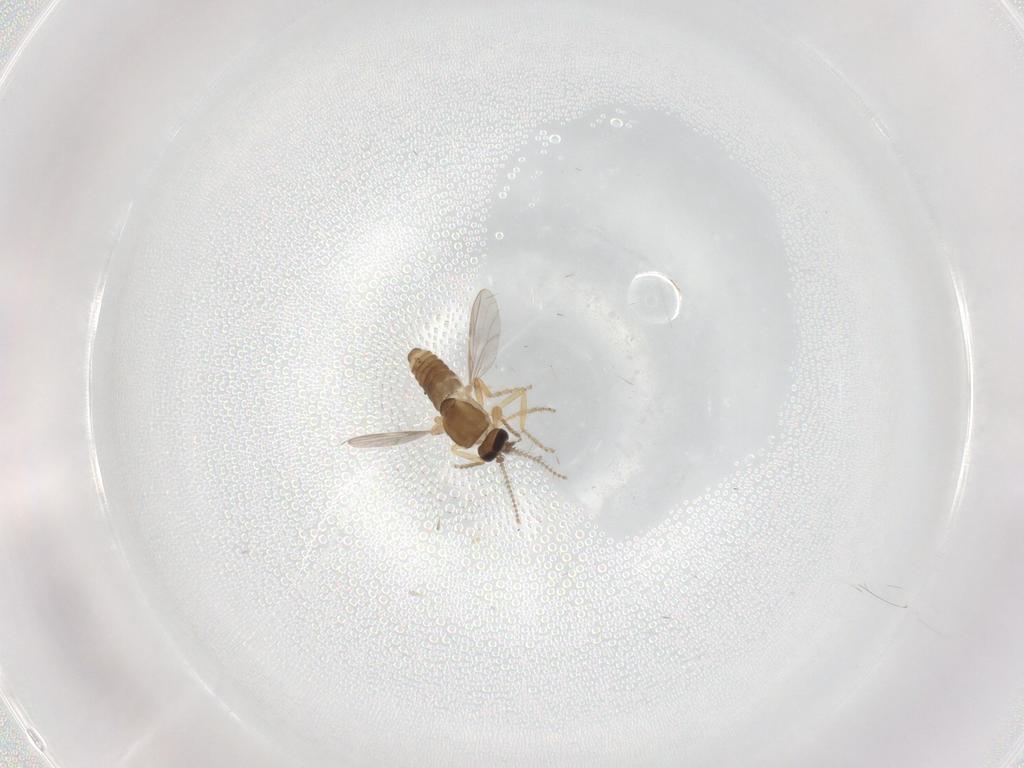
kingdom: Animalia
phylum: Arthropoda
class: Insecta
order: Diptera
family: Ceratopogonidae
